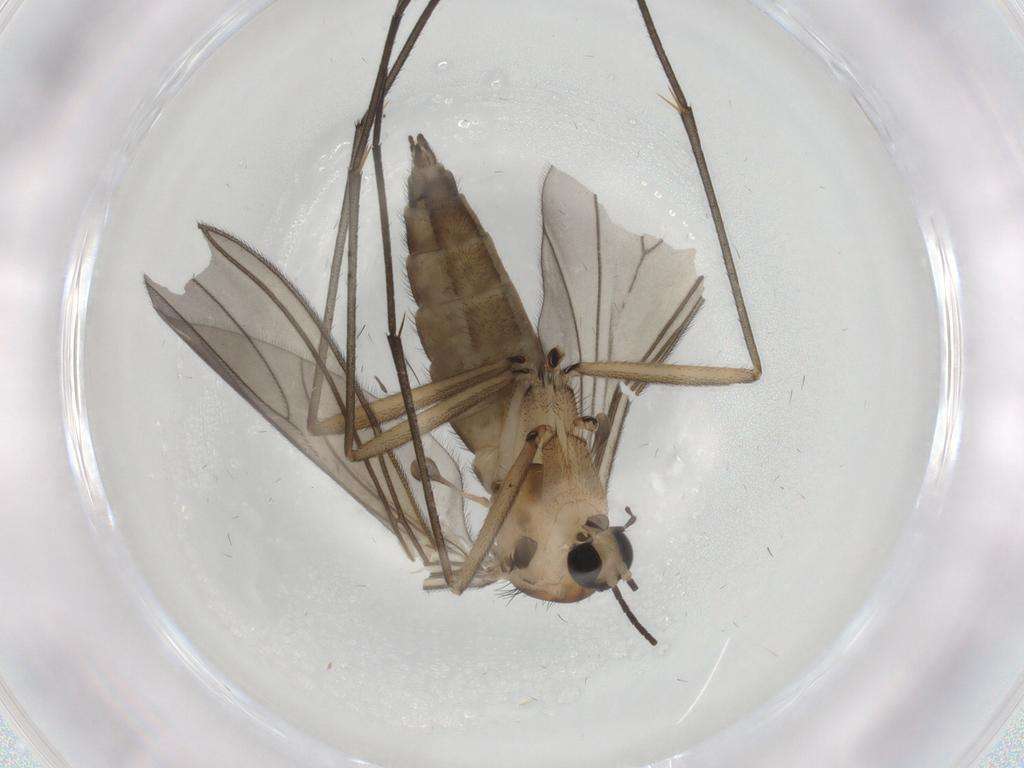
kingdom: Animalia
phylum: Arthropoda
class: Insecta
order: Diptera
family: Sciaridae
